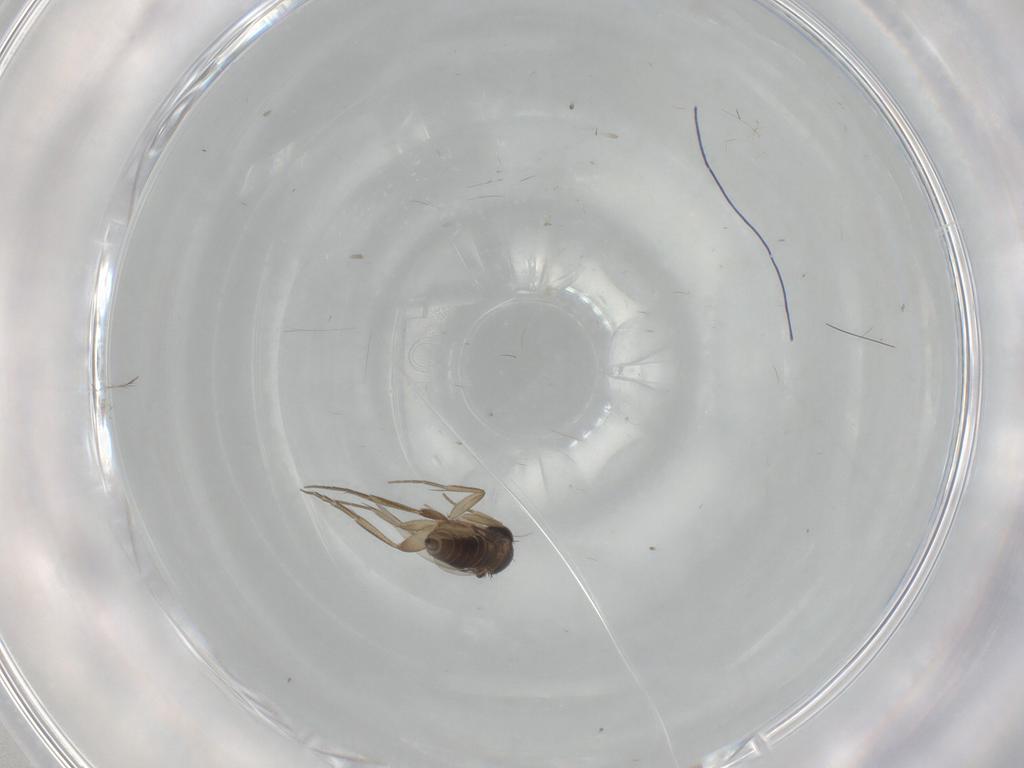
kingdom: Animalia
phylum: Arthropoda
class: Insecta
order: Diptera
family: Phoridae
